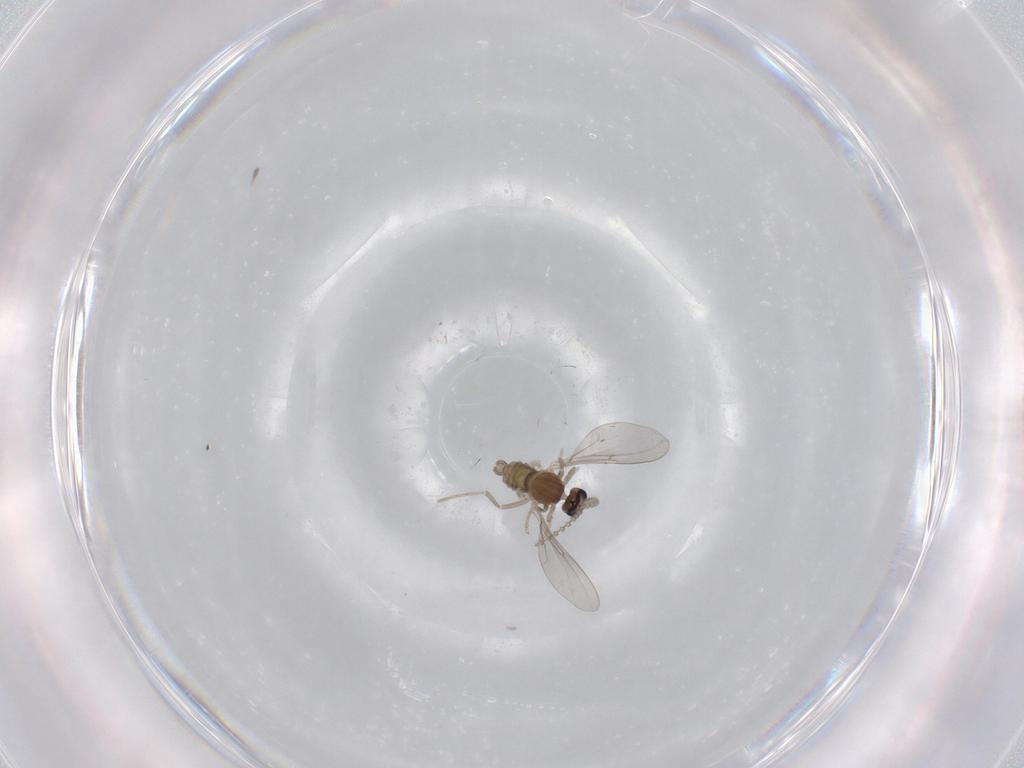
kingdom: Animalia
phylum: Arthropoda
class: Insecta
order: Diptera
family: Cecidomyiidae
